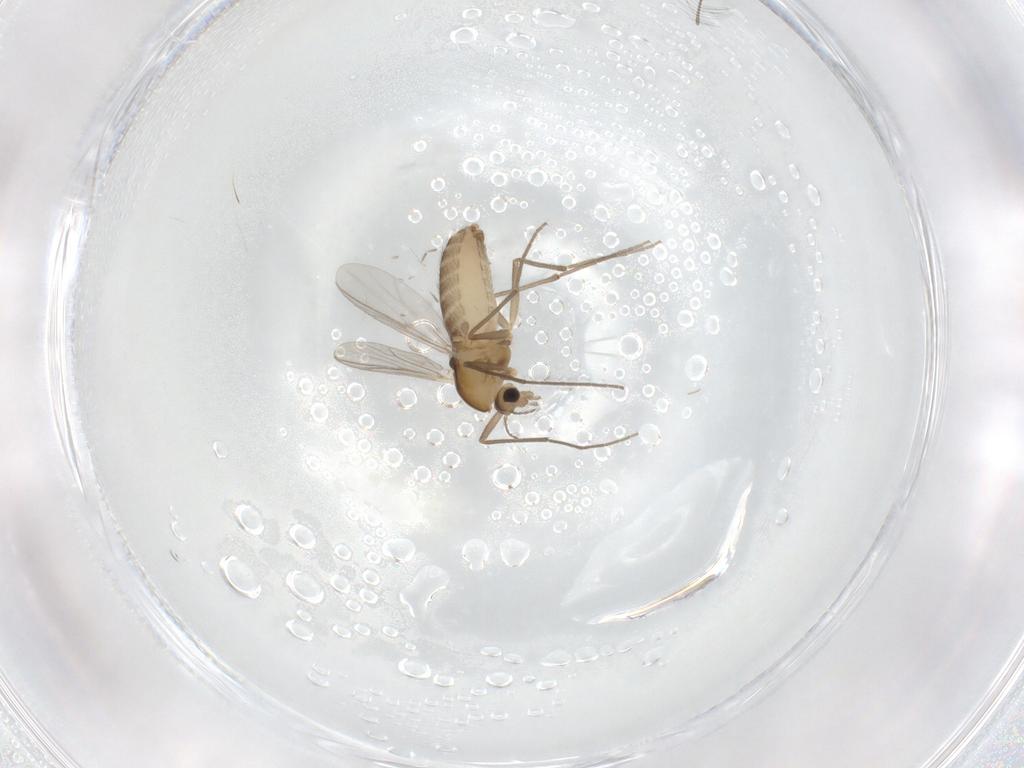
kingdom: Animalia
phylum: Arthropoda
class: Insecta
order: Diptera
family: Chironomidae
